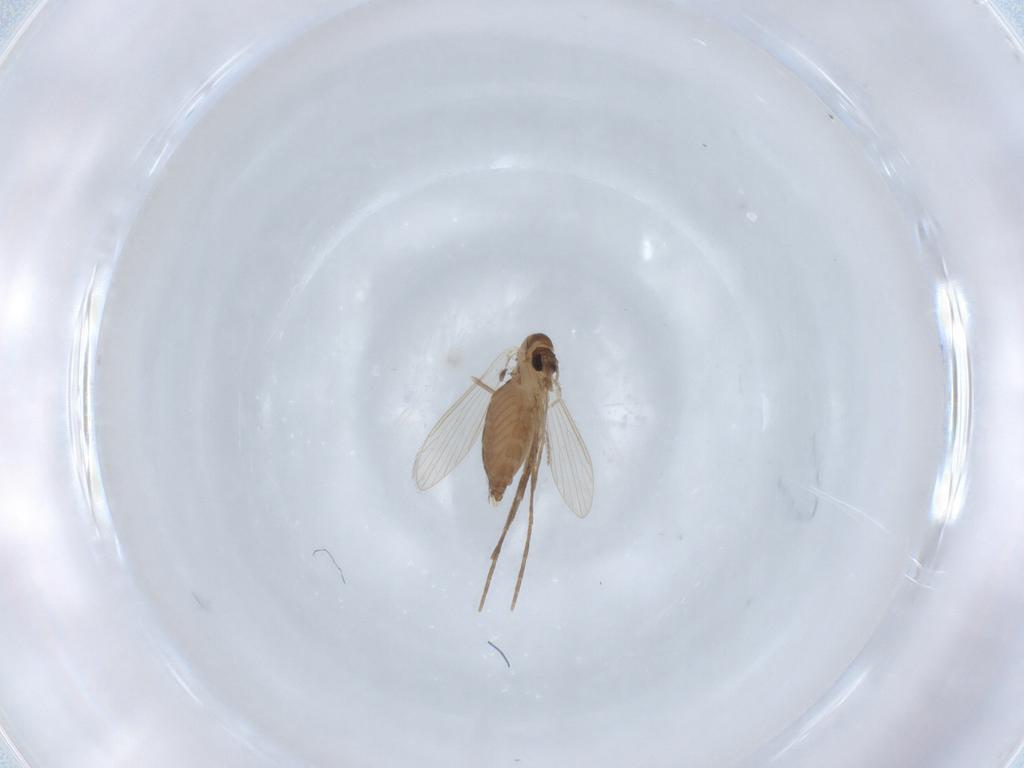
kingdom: Animalia
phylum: Arthropoda
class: Insecta
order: Diptera
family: Psychodidae
